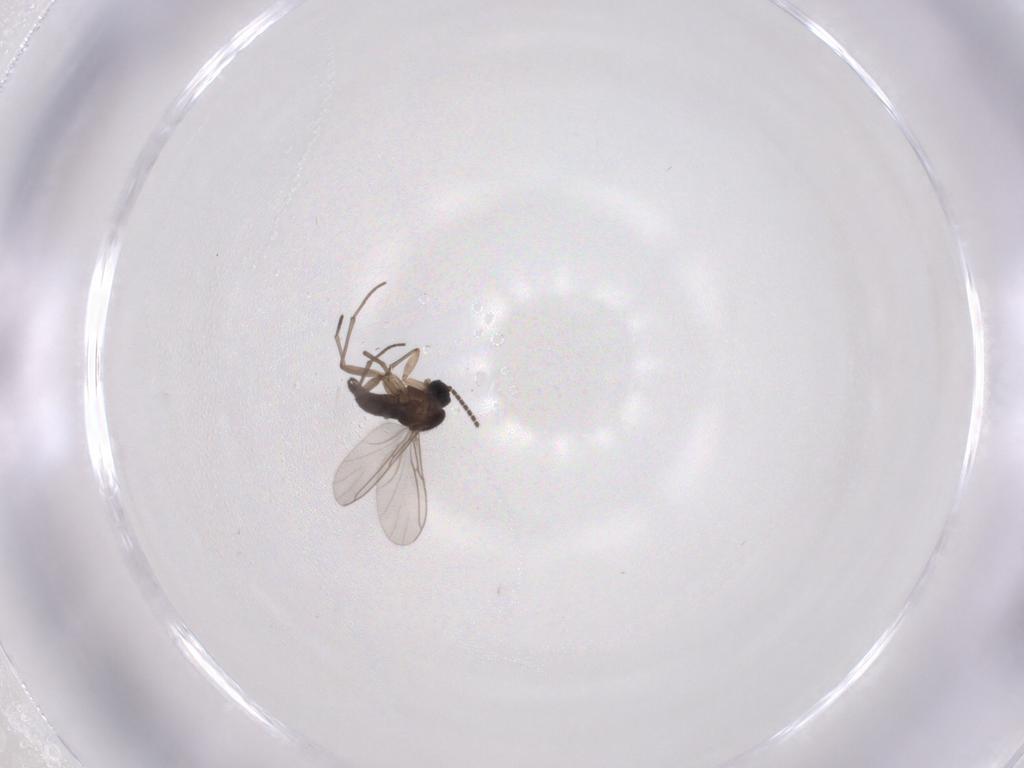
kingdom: Animalia
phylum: Arthropoda
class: Insecta
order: Diptera
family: Sciaridae
